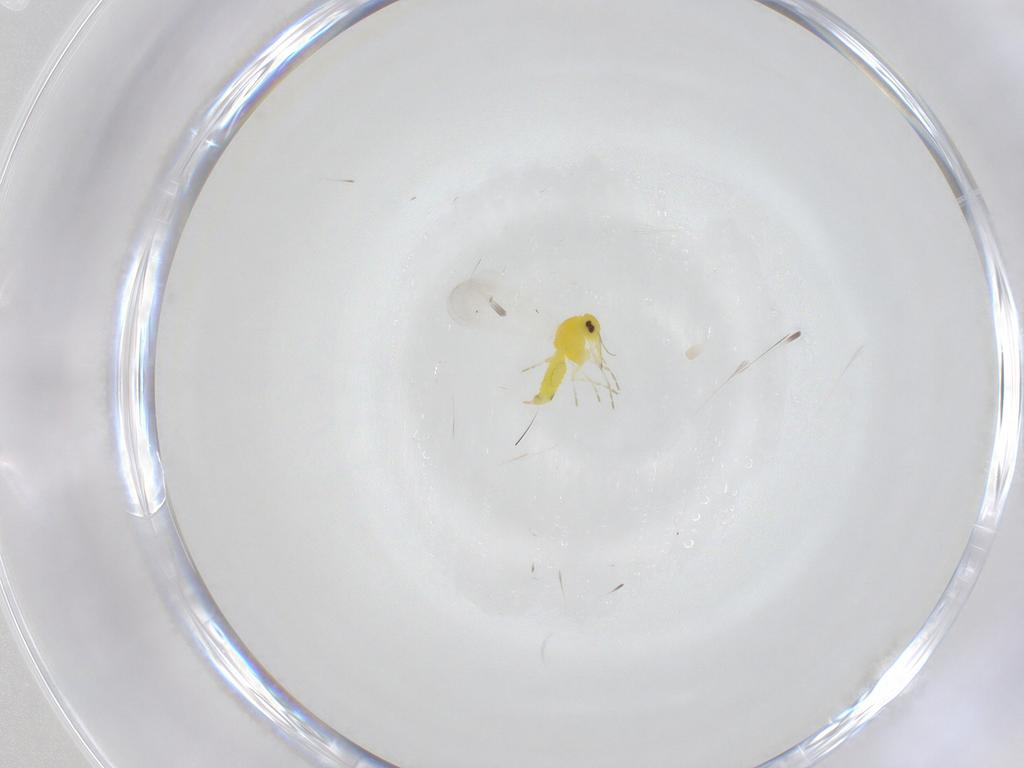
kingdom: Animalia
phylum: Arthropoda
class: Insecta
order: Hemiptera
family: Aleyrodidae
